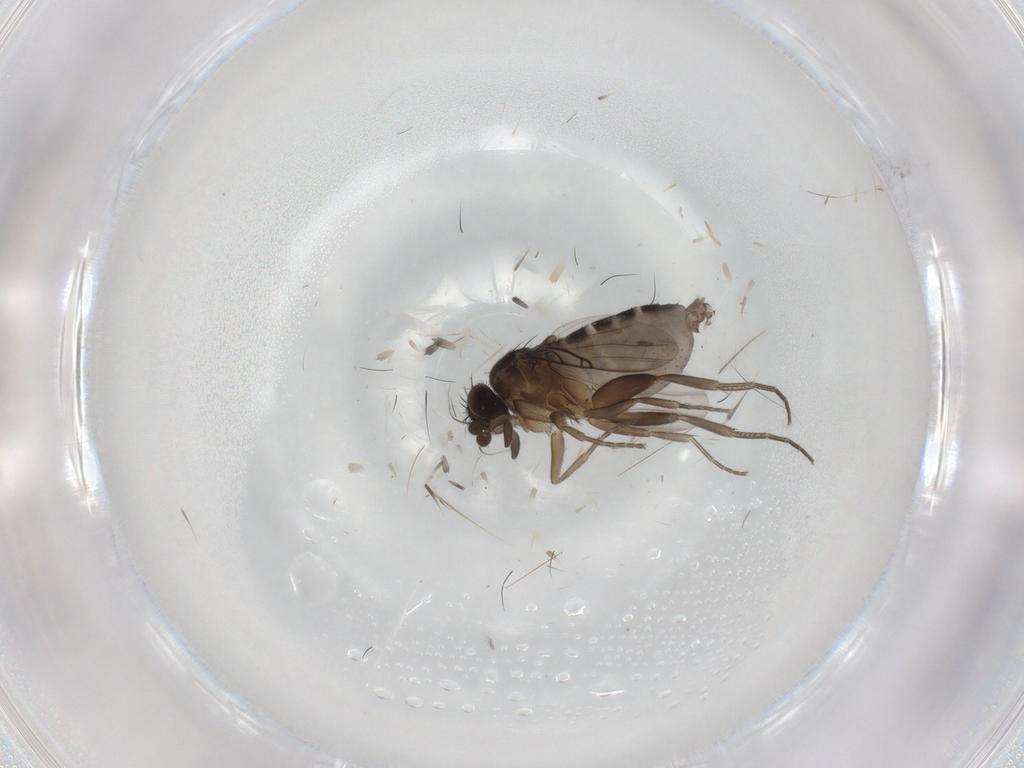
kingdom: Animalia
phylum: Arthropoda
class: Insecta
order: Diptera
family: Phoridae
